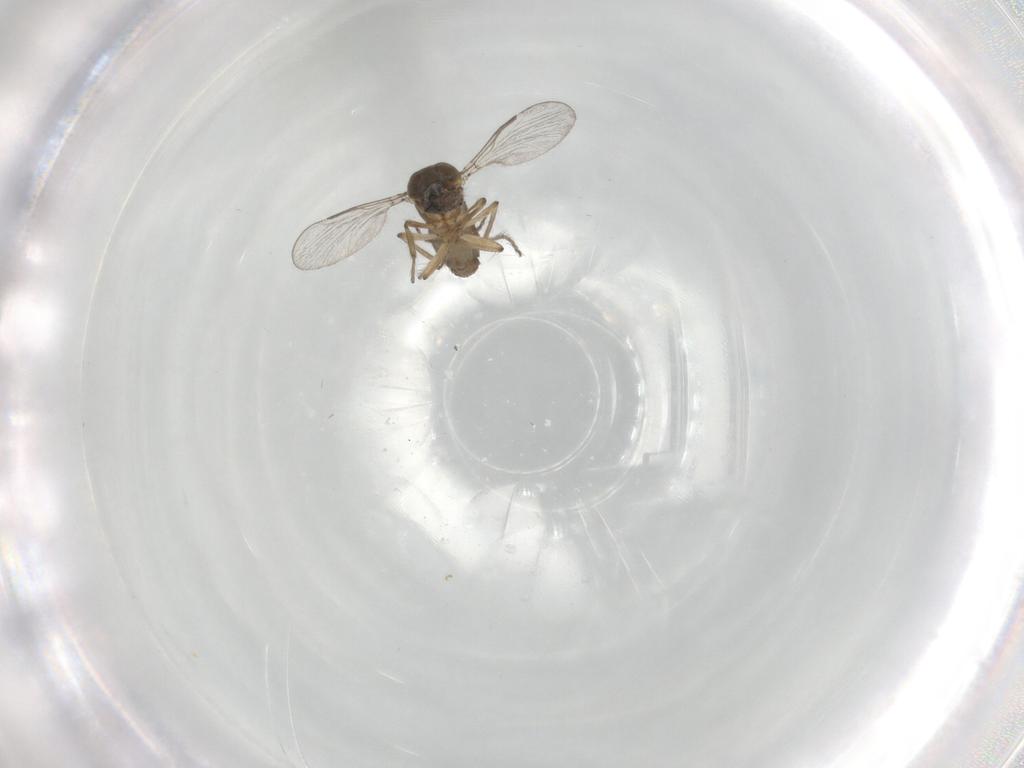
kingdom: Animalia
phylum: Arthropoda
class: Insecta
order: Diptera
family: Ceratopogonidae
